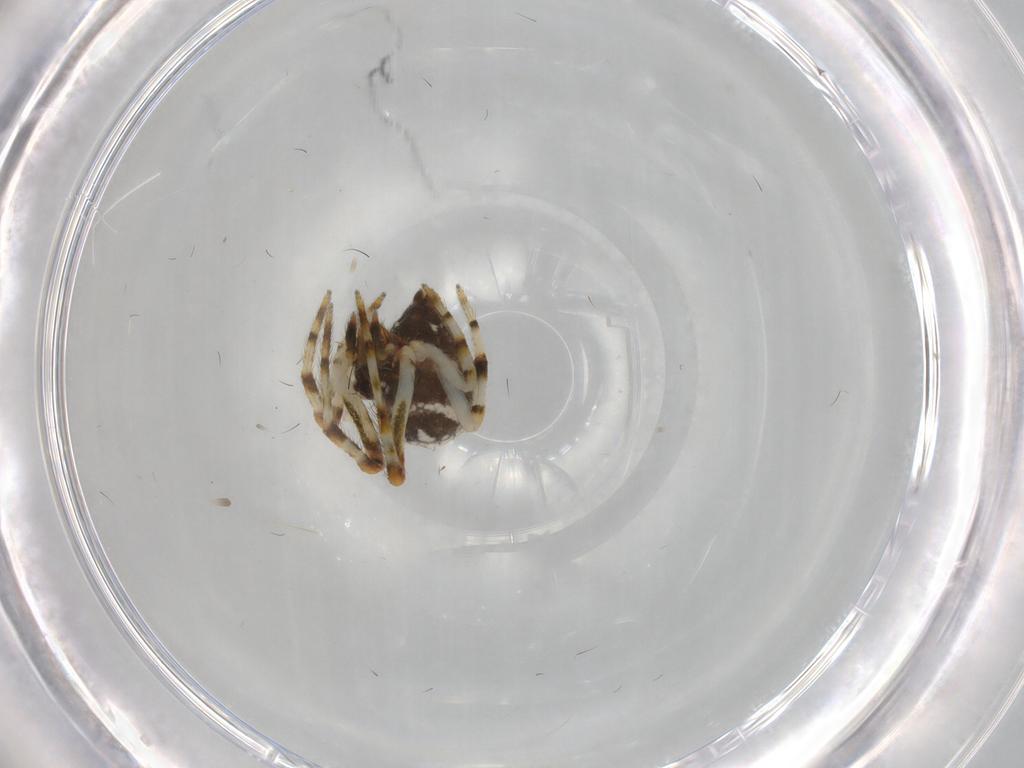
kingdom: Animalia
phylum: Arthropoda
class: Arachnida
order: Araneae
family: Theridiidae
